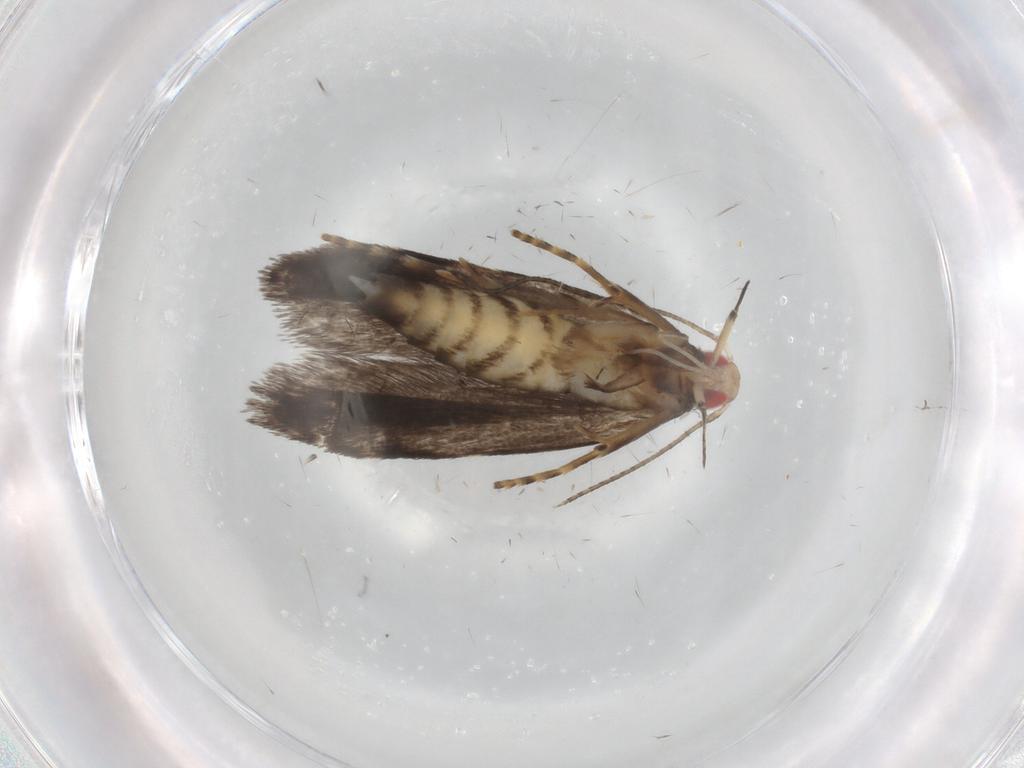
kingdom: Animalia
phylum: Arthropoda
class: Insecta
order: Lepidoptera
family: Gelechiidae
